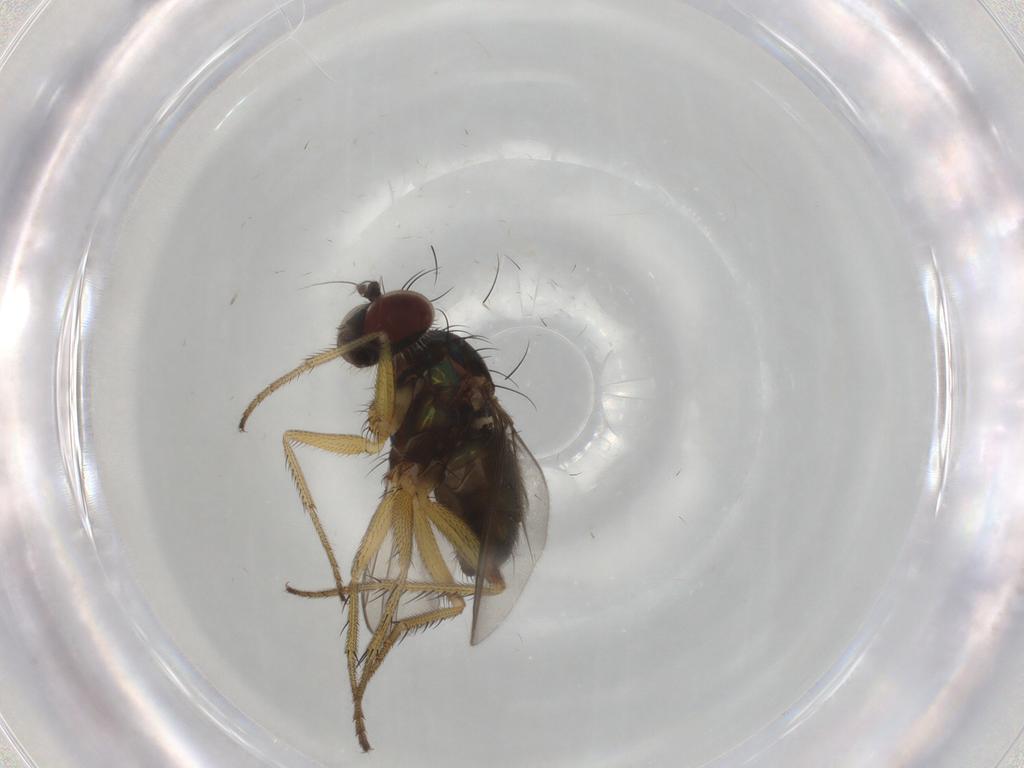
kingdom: Animalia
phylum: Arthropoda
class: Insecta
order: Diptera
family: Dolichopodidae
